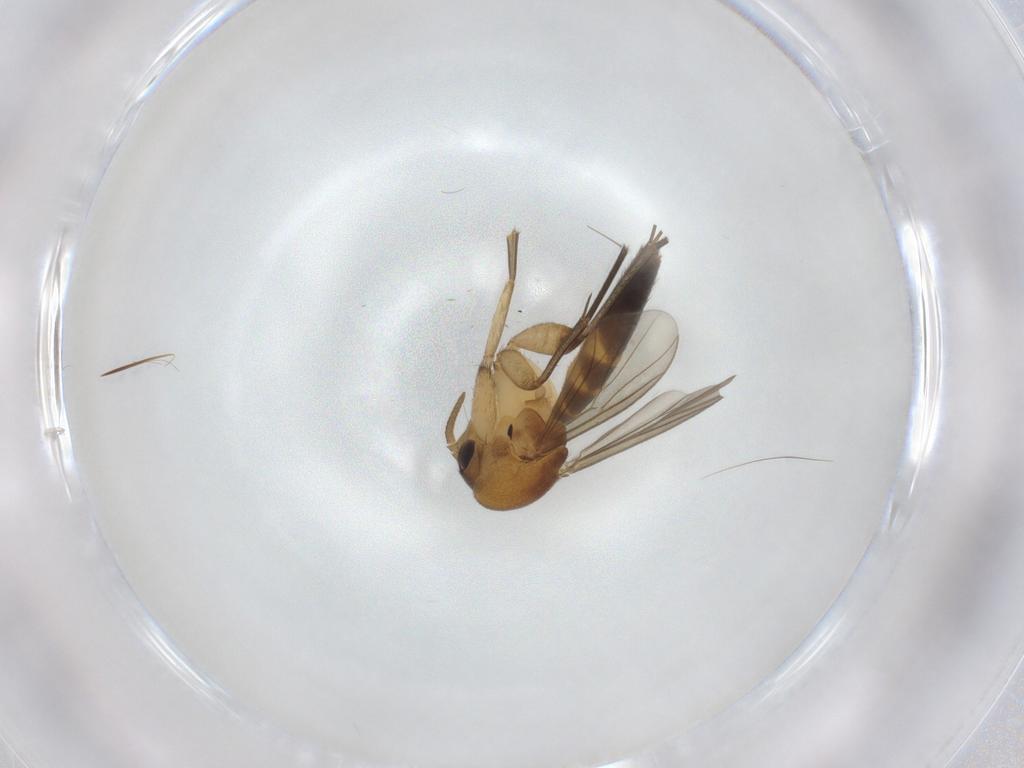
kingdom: Animalia
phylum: Arthropoda
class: Insecta
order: Diptera
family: Mycetophilidae
